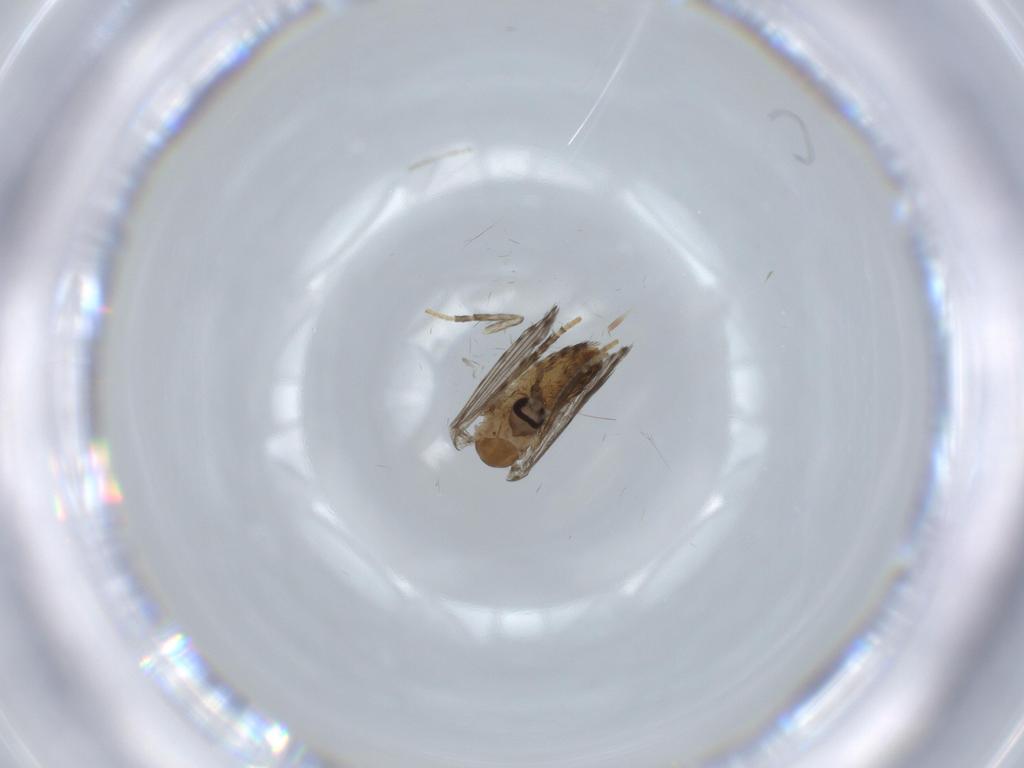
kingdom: Animalia
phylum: Arthropoda
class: Insecta
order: Diptera
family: Psychodidae
